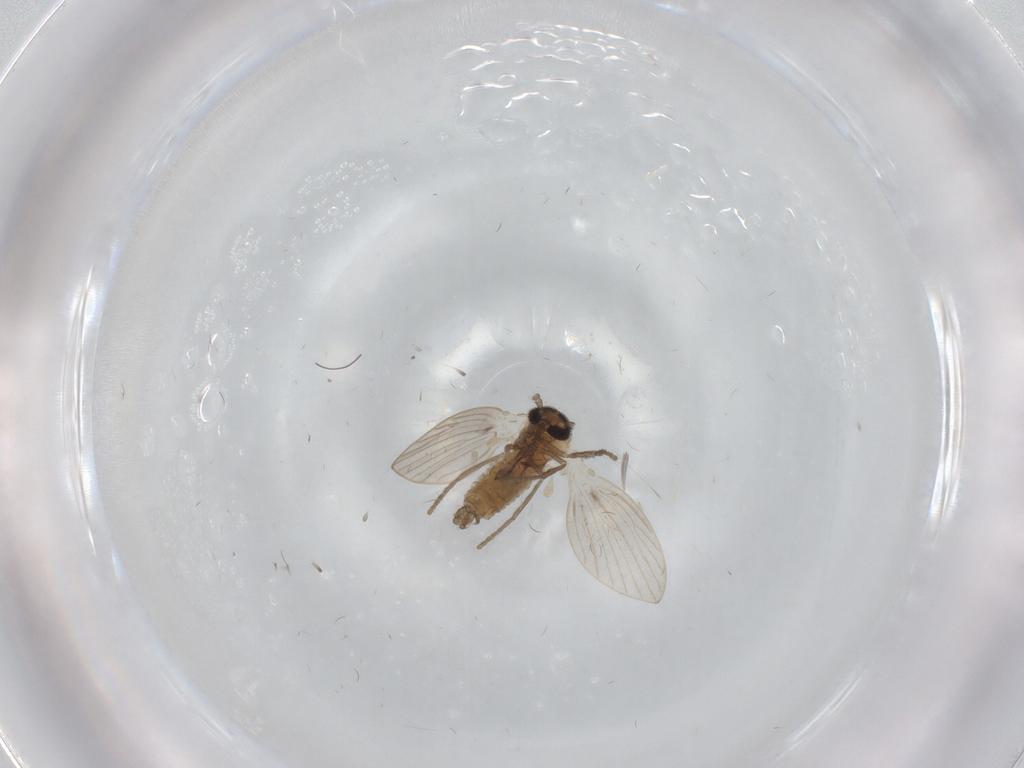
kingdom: Animalia
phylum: Arthropoda
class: Insecta
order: Diptera
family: Psychodidae
